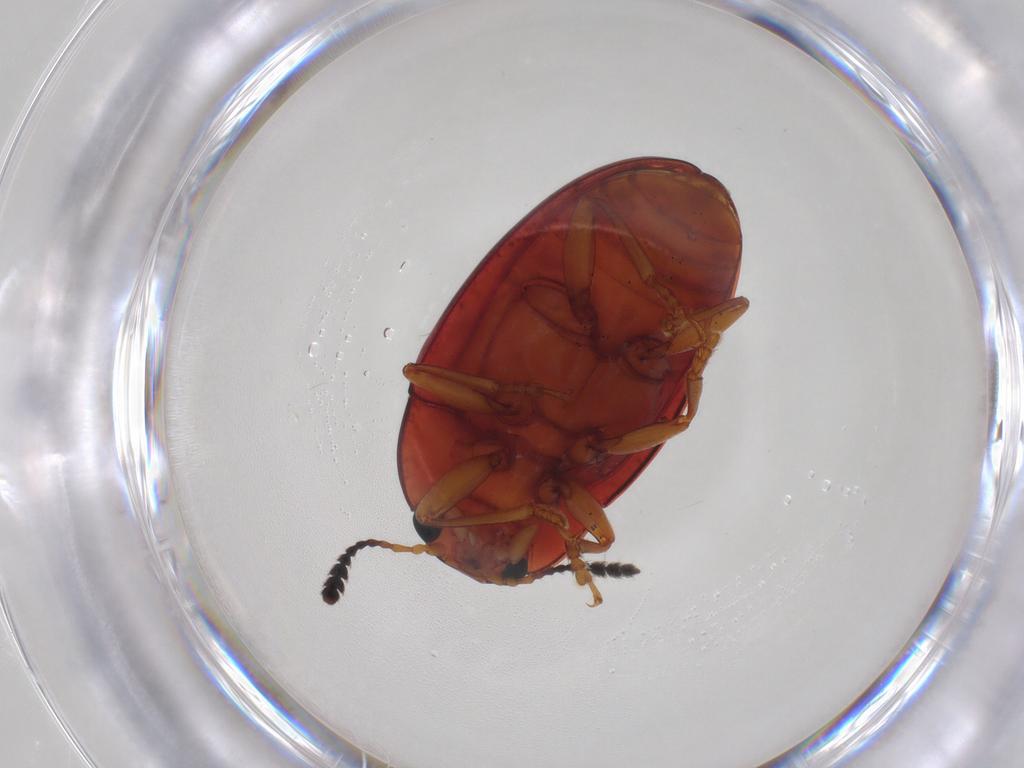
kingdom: Animalia
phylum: Arthropoda
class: Insecta
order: Coleoptera
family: Erotylidae
